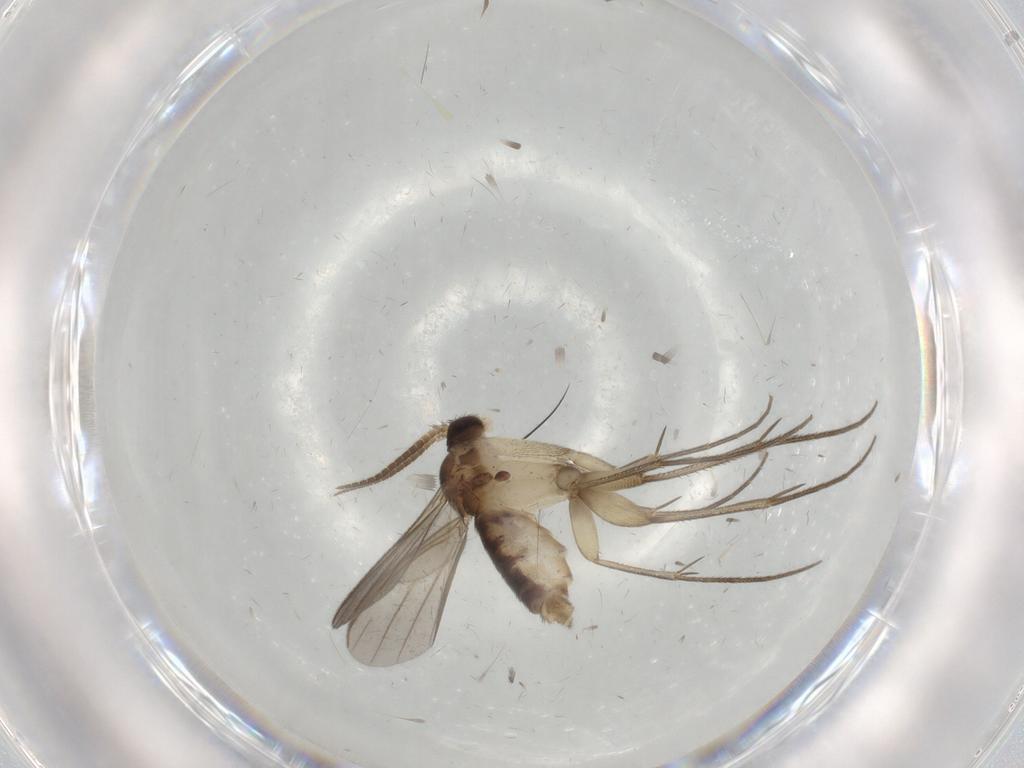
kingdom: Animalia
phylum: Arthropoda
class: Insecta
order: Diptera
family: Mycetophilidae
